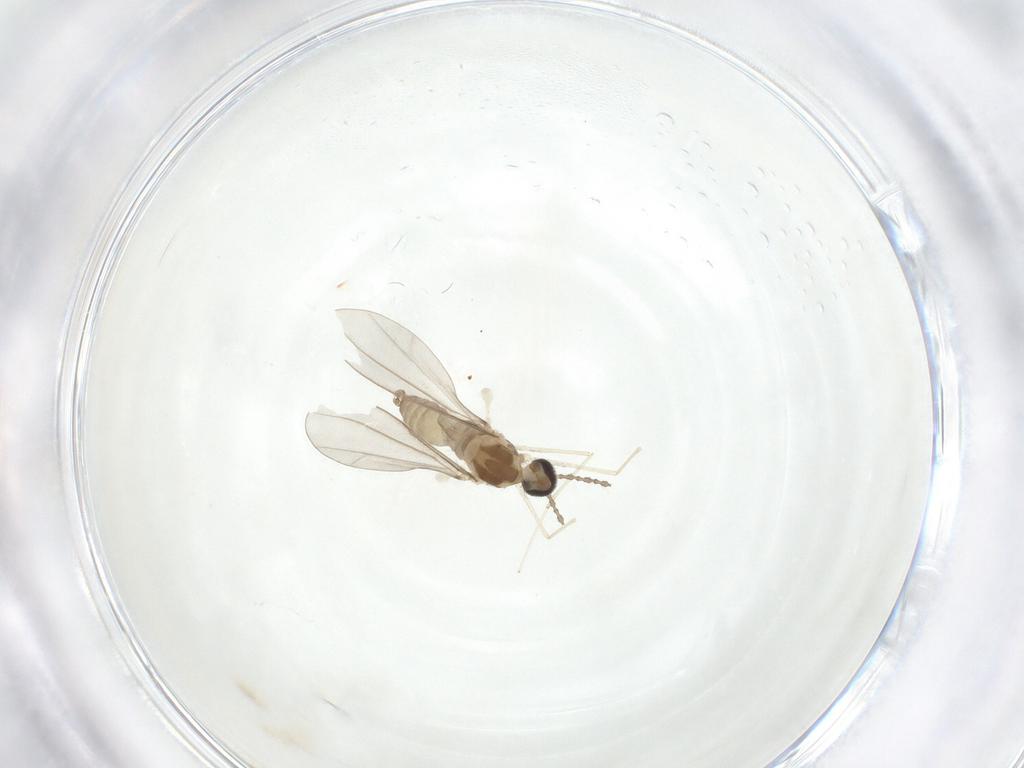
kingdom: Animalia
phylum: Arthropoda
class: Insecta
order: Diptera
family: Cecidomyiidae
